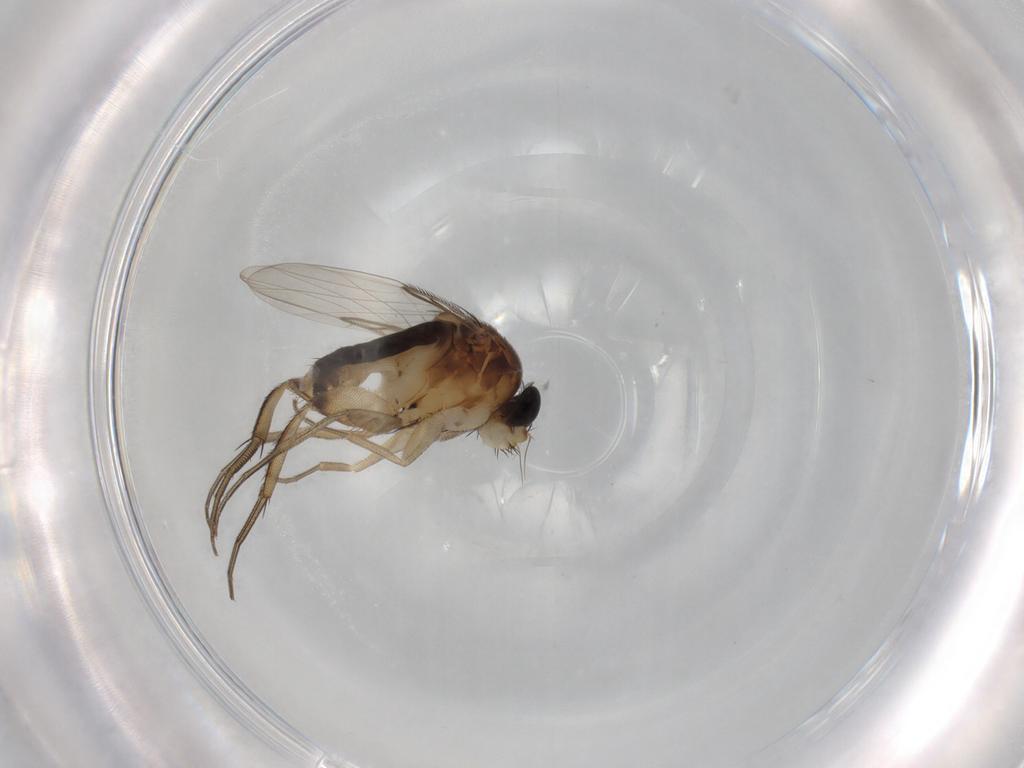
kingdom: Animalia
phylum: Arthropoda
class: Insecta
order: Diptera
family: Phoridae
